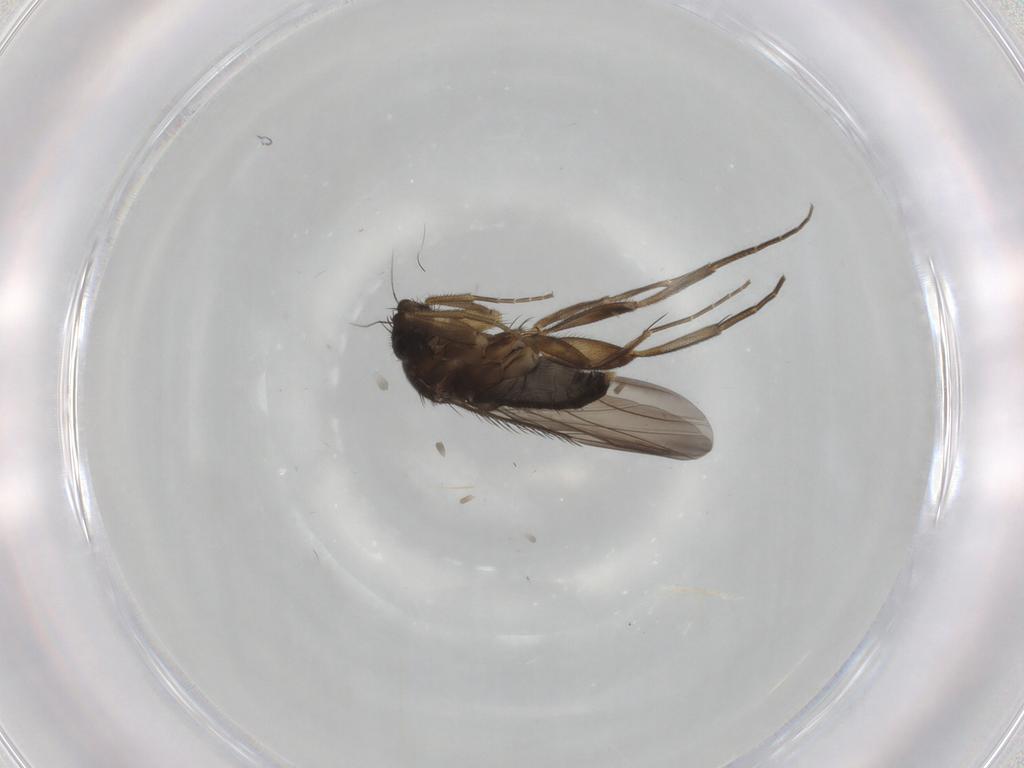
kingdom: Animalia
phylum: Arthropoda
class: Insecta
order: Diptera
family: Phoridae
